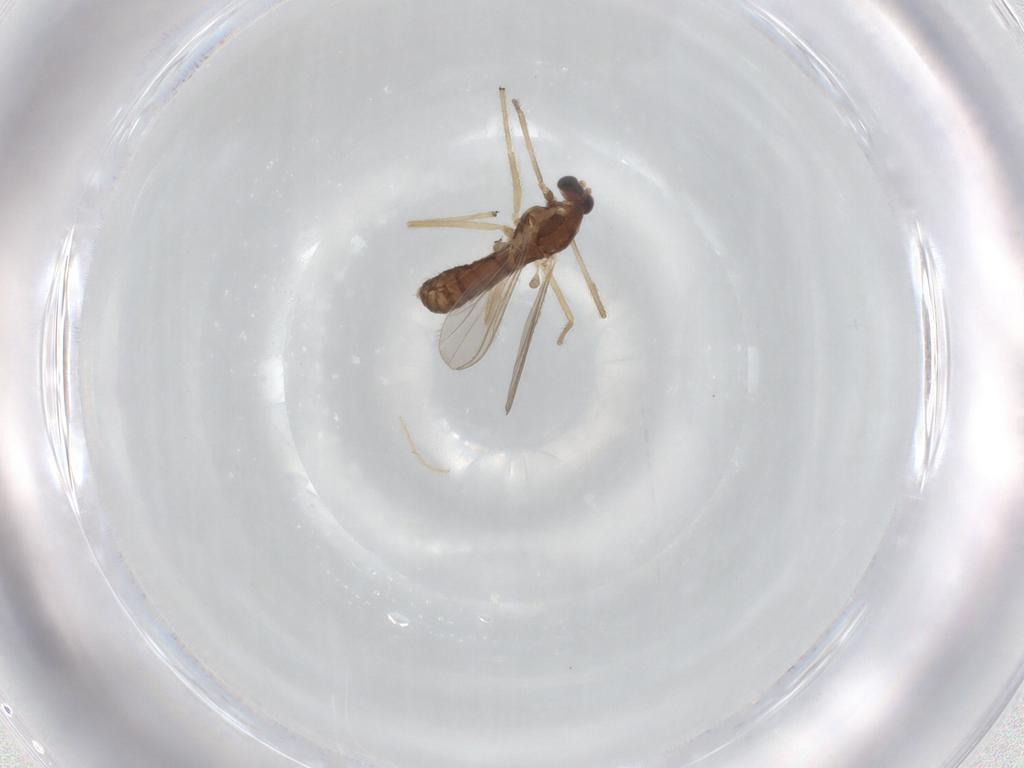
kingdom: Animalia
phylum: Arthropoda
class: Insecta
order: Diptera
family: Chironomidae
